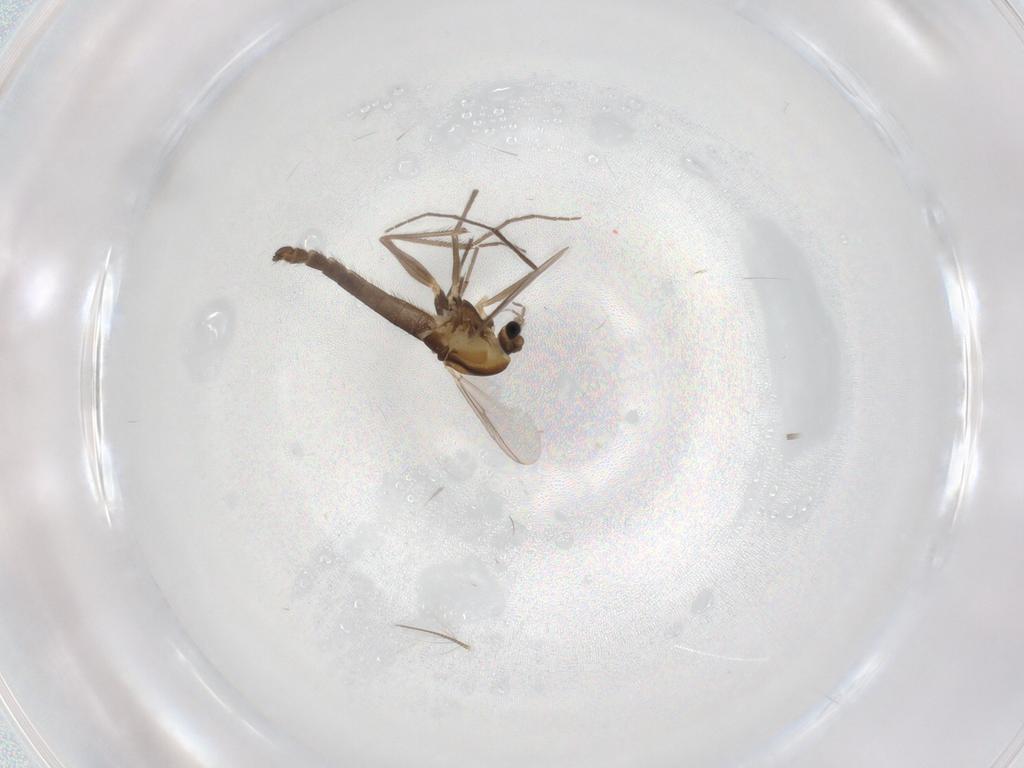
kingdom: Animalia
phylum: Arthropoda
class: Insecta
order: Diptera
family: Chironomidae
